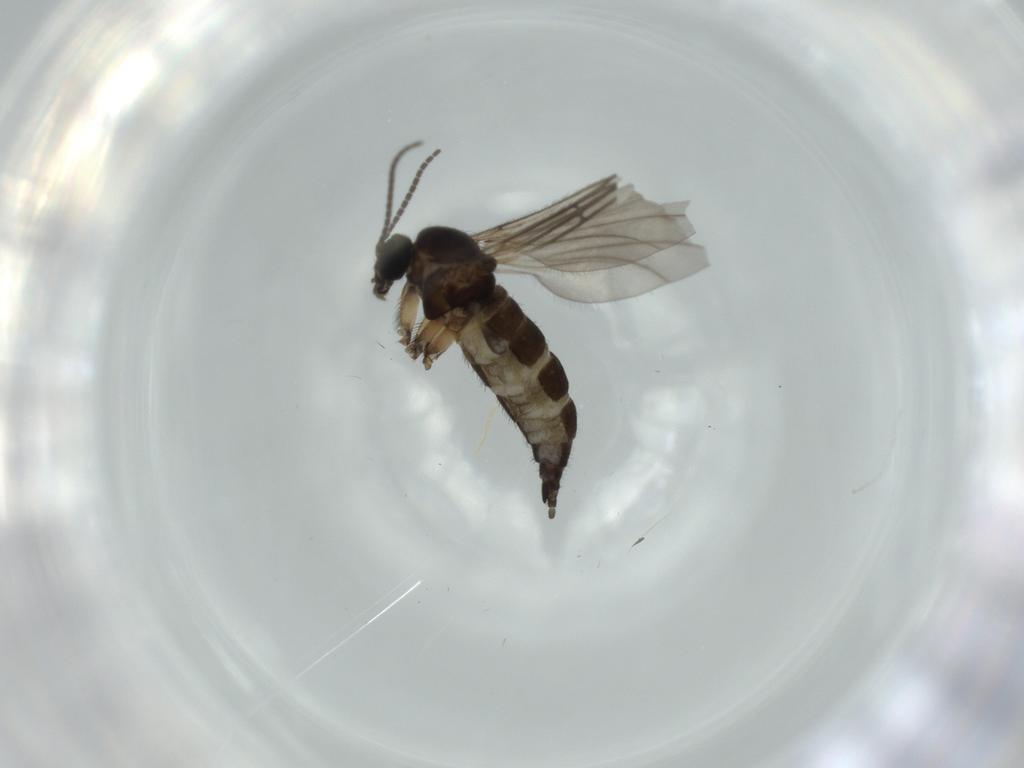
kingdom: Animalia
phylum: Arthropoda
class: Insecta
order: Diptera
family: Sciaridae
